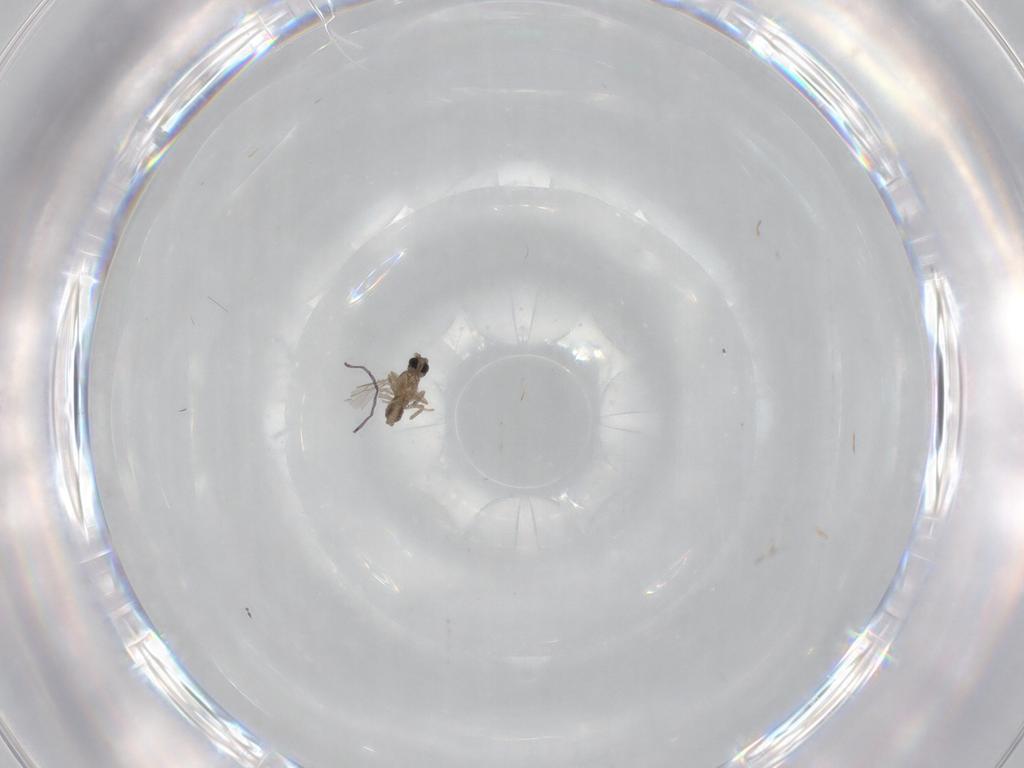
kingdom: Animalia
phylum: Arthropoda
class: Insecta
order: Diptera
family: Cecidomyiidae
